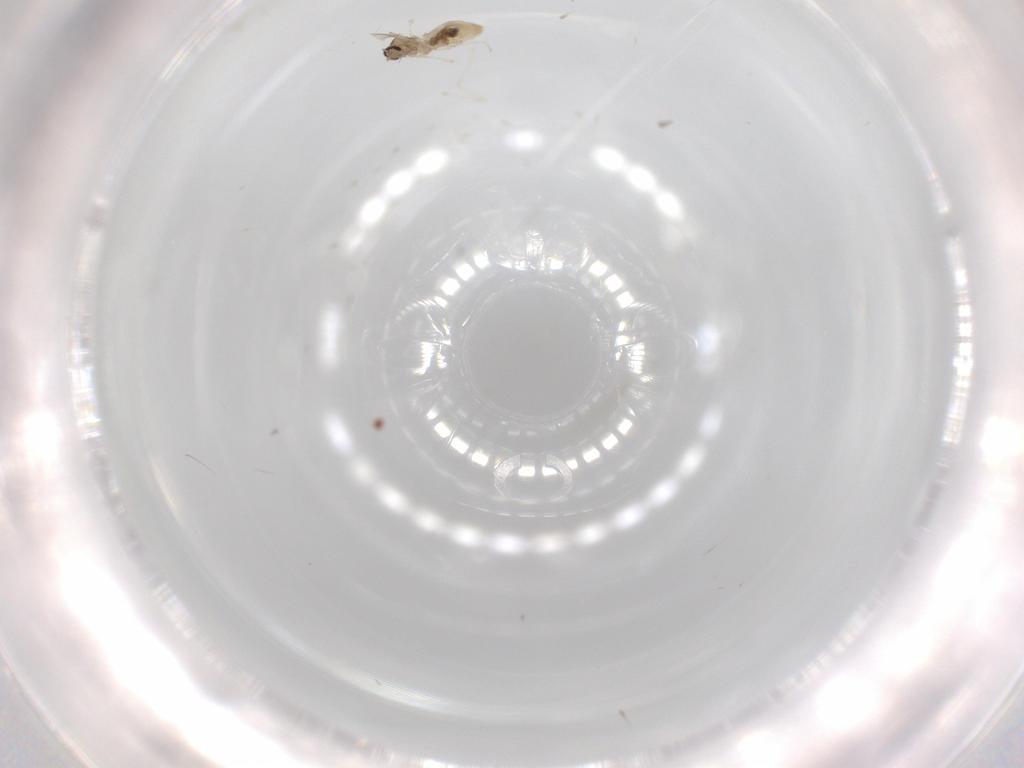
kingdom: Animalia
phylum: Arthropoda
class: Insecta
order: Diptera
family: Cecidomyiidae
